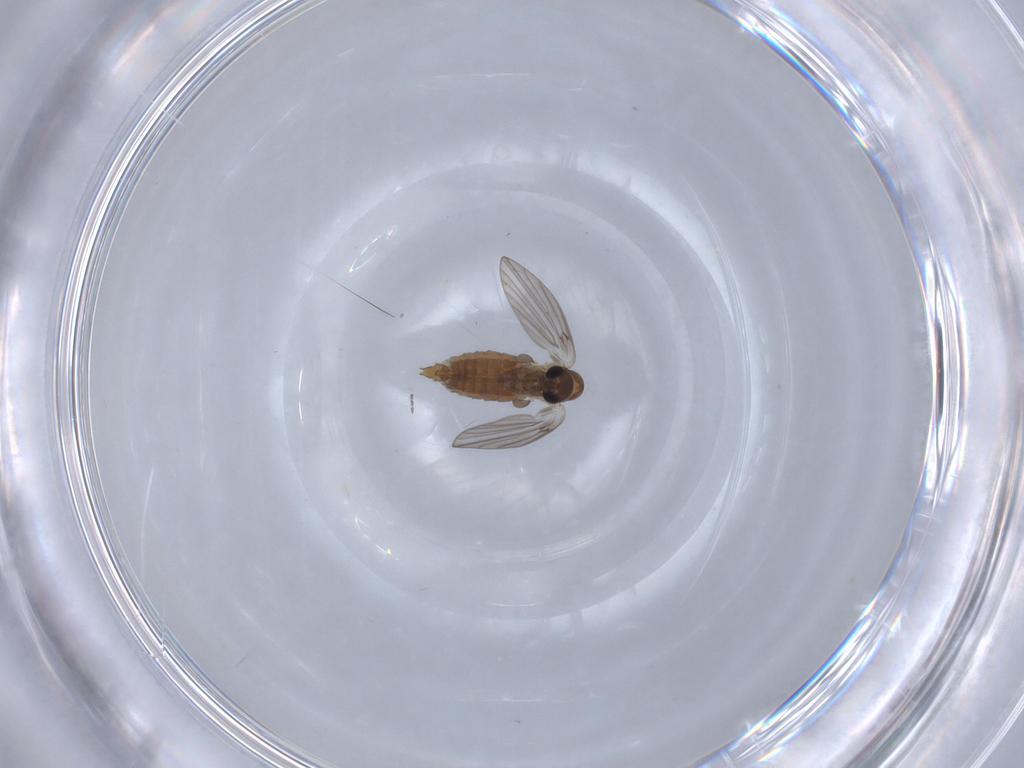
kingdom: Animalia
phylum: Arthropoda
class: Insecta
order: Diptera
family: Psychodidae
